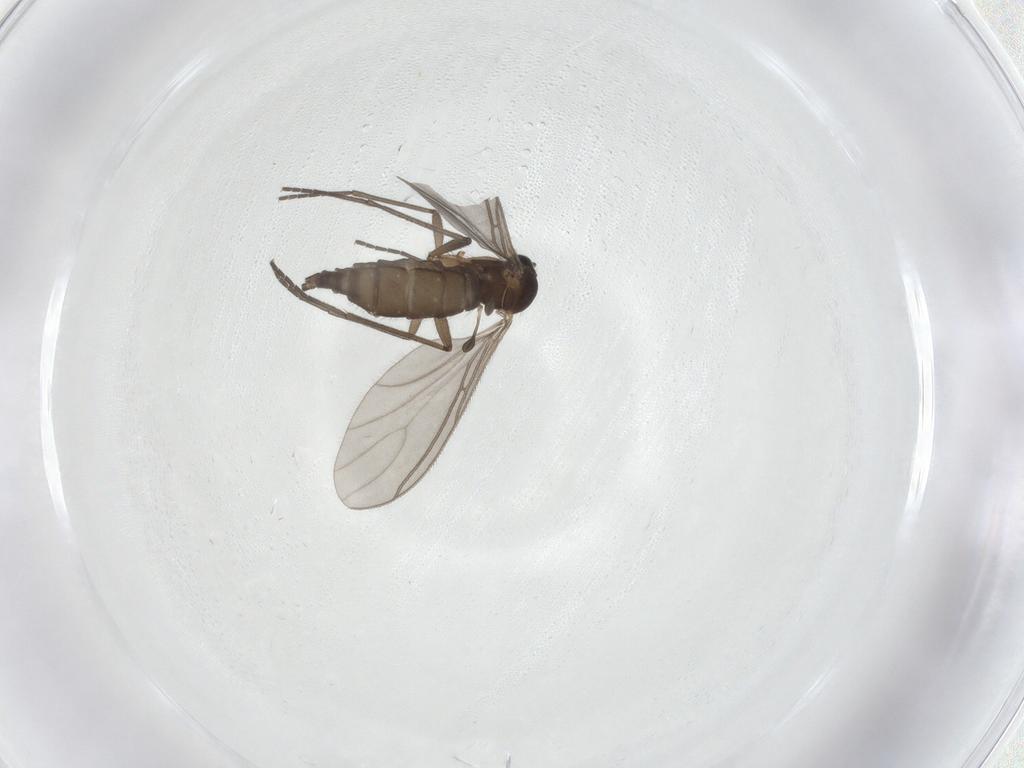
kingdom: Animalia
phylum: Arthropoda
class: Insecta
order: Diptera
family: Sciaridae
